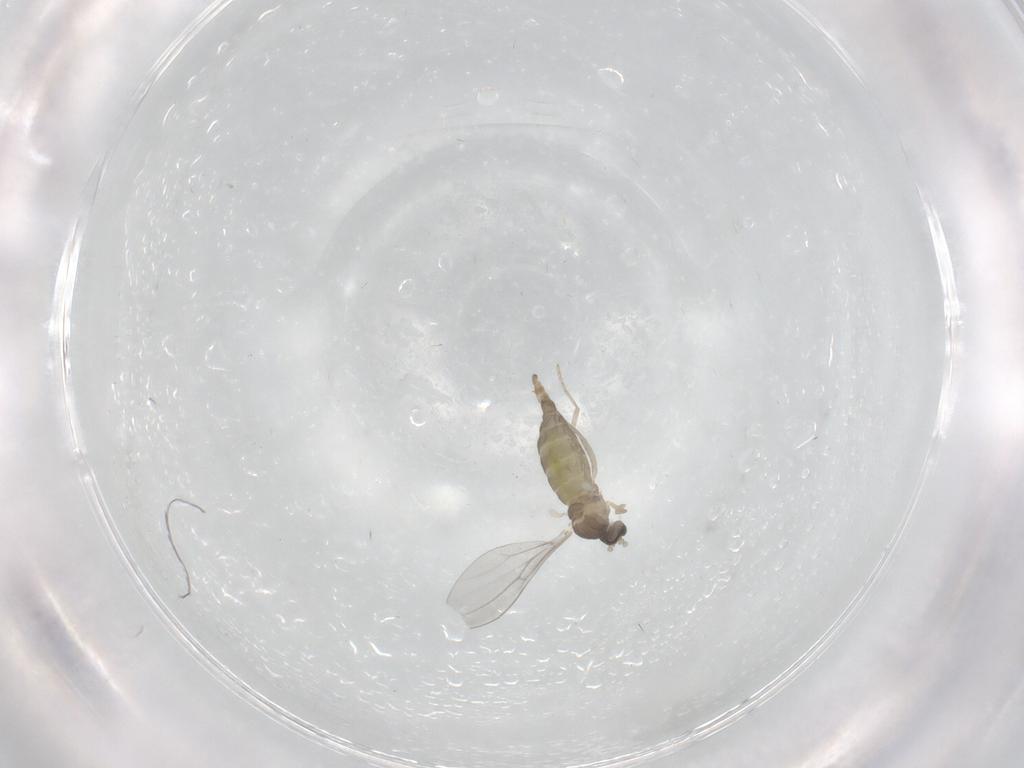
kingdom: Animalia
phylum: Arthropoda
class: Insecta
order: Diptera
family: Cecidomyiidae
